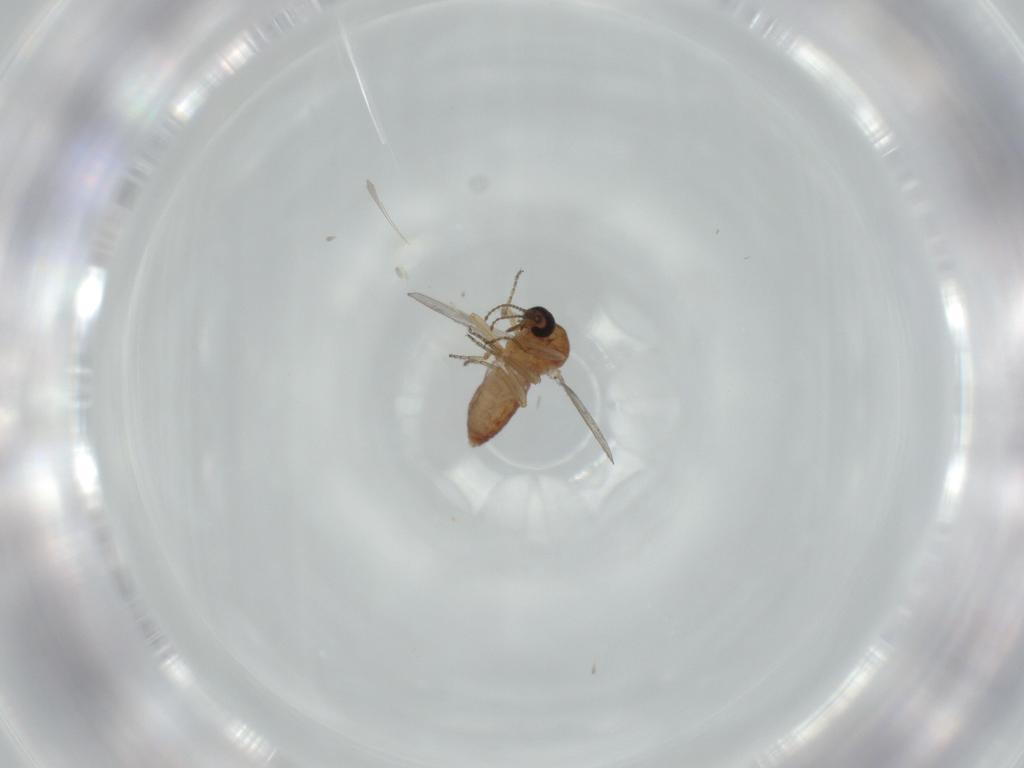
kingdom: Animalia
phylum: Arthropoda
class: Insecta
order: Diptera
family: Ceratopogonidae
